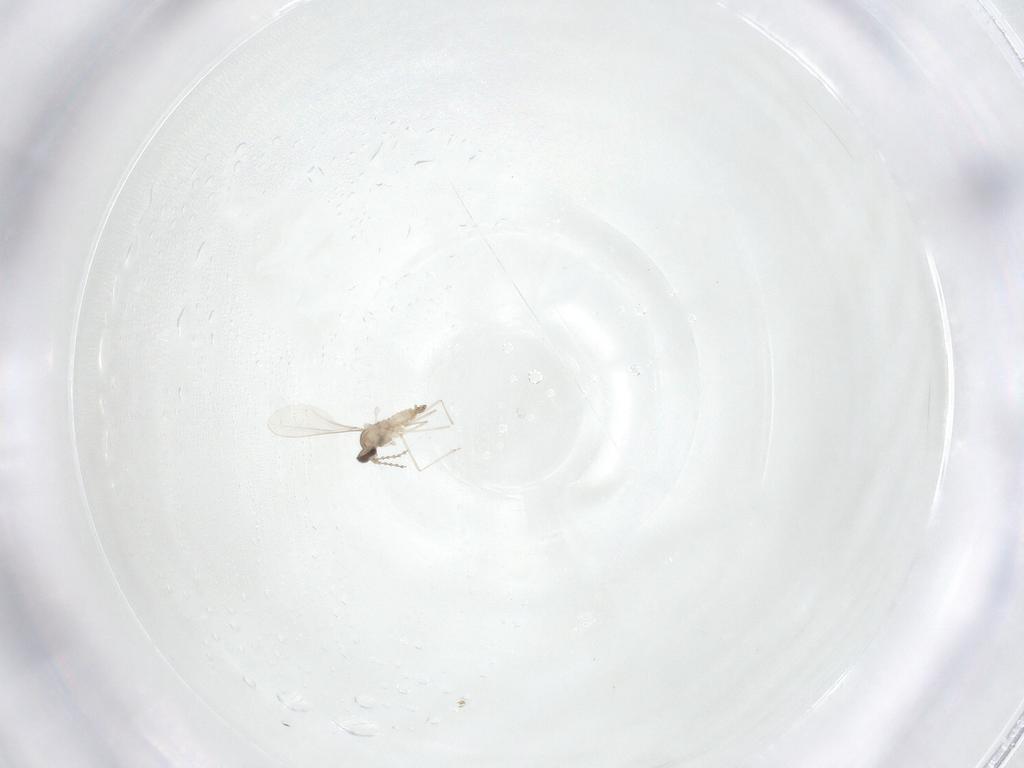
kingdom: Animalia
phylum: Arthropoda
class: Insecta
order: Diptera
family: Cecidomyiidae
